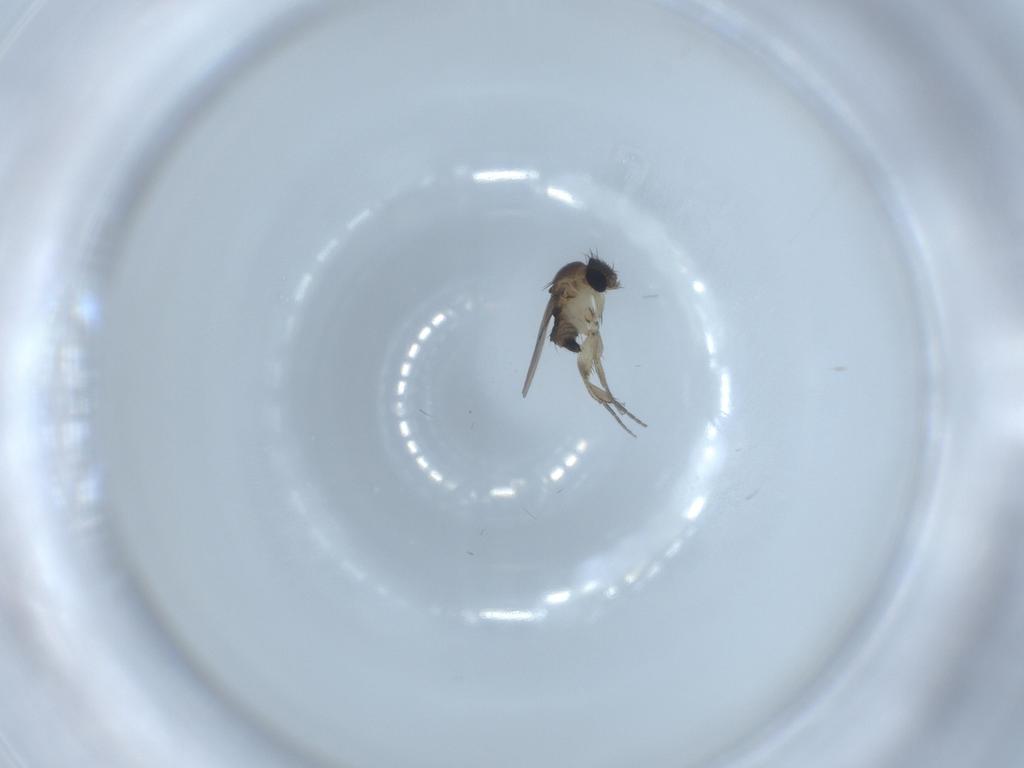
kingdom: Animalia
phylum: Arthropoda
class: Insecta
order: Diptera
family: Phoridae
